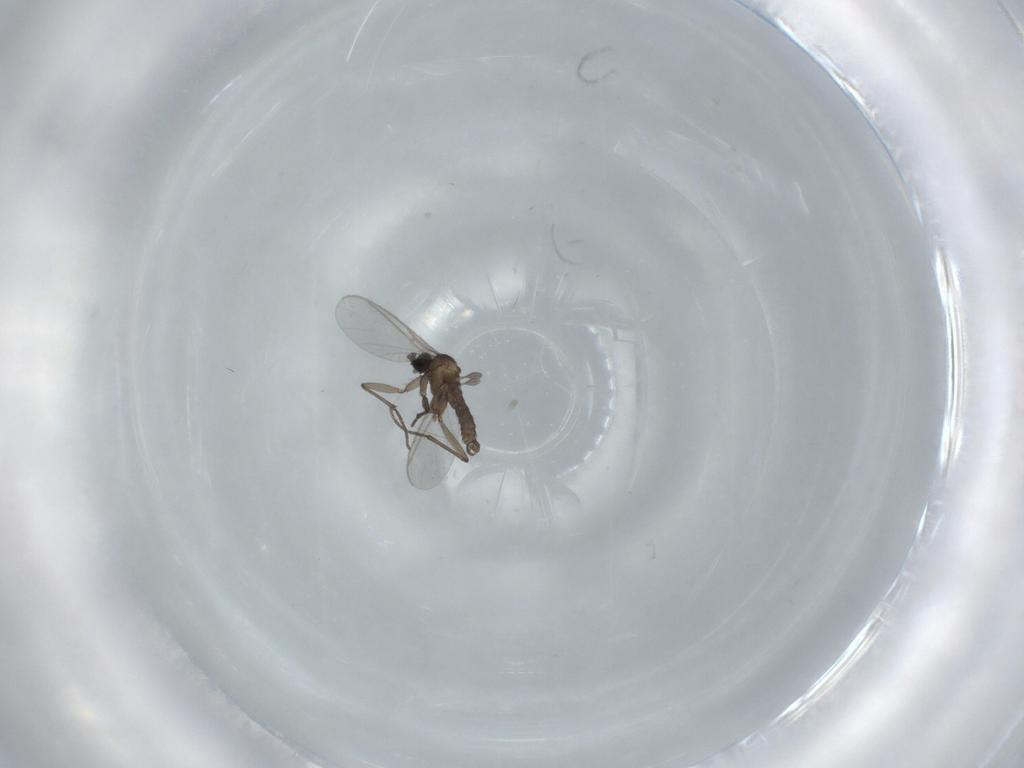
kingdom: Animalia
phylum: Arthropoda
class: Insecta
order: Diptera
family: Sciaridae
